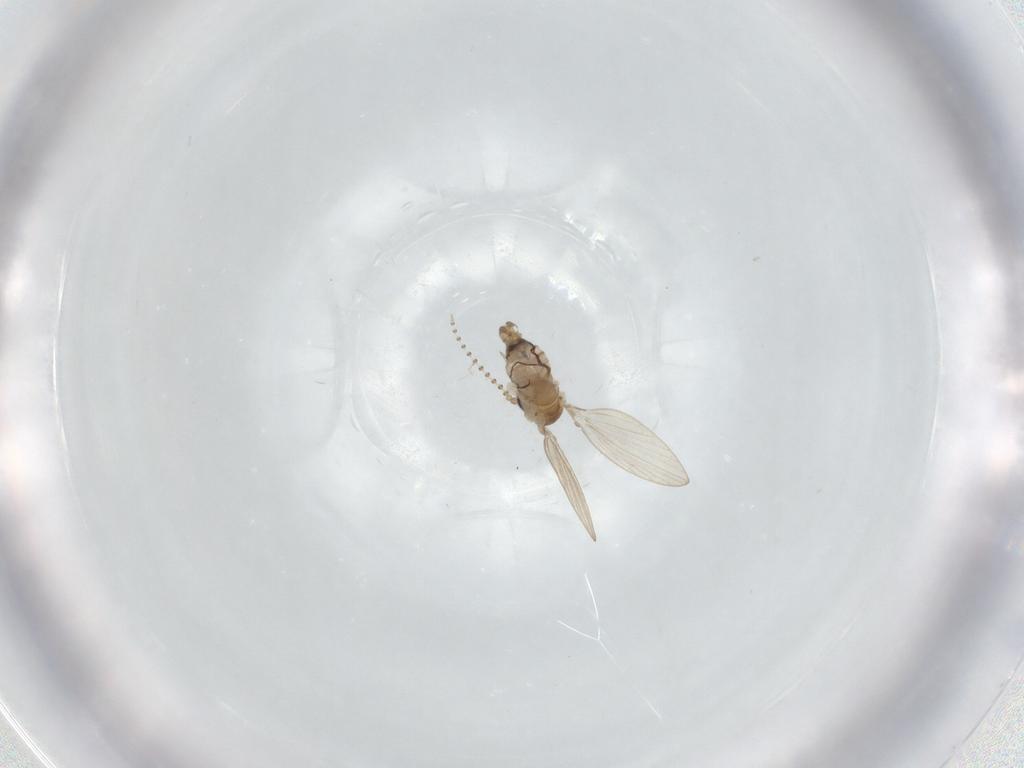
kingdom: Animalia
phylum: Arthropoda
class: Insecta
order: Diptera
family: Psychodidae
